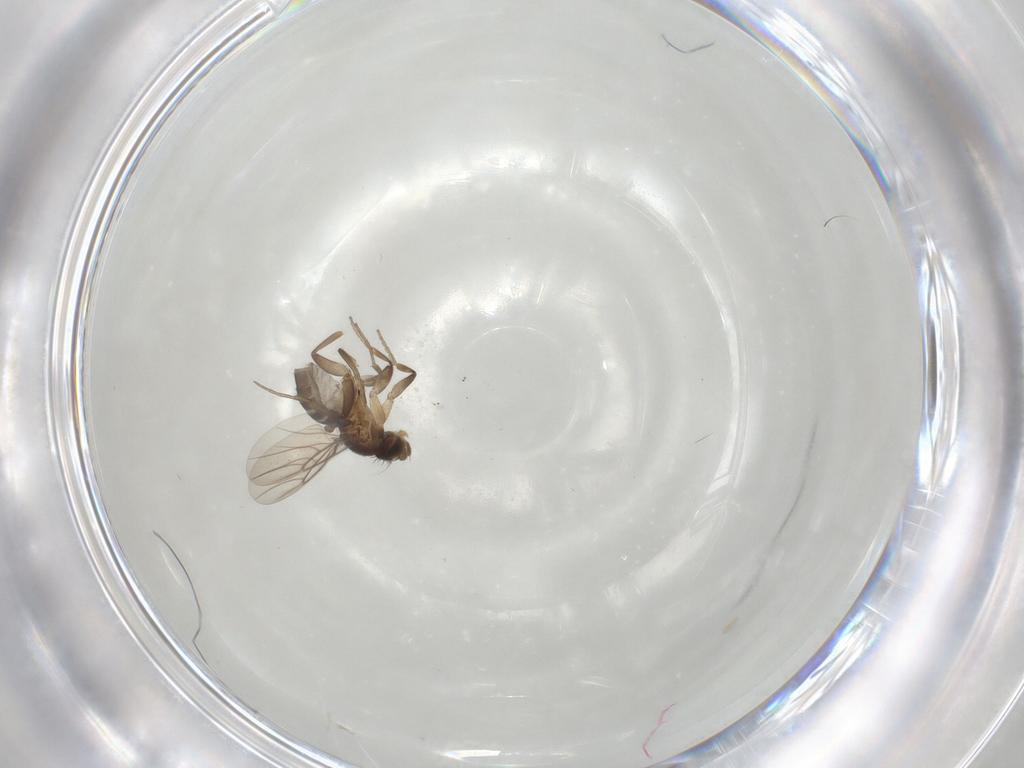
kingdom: Animalia
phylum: Arthropoda
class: Insecta
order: Diptera
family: Phoridae
